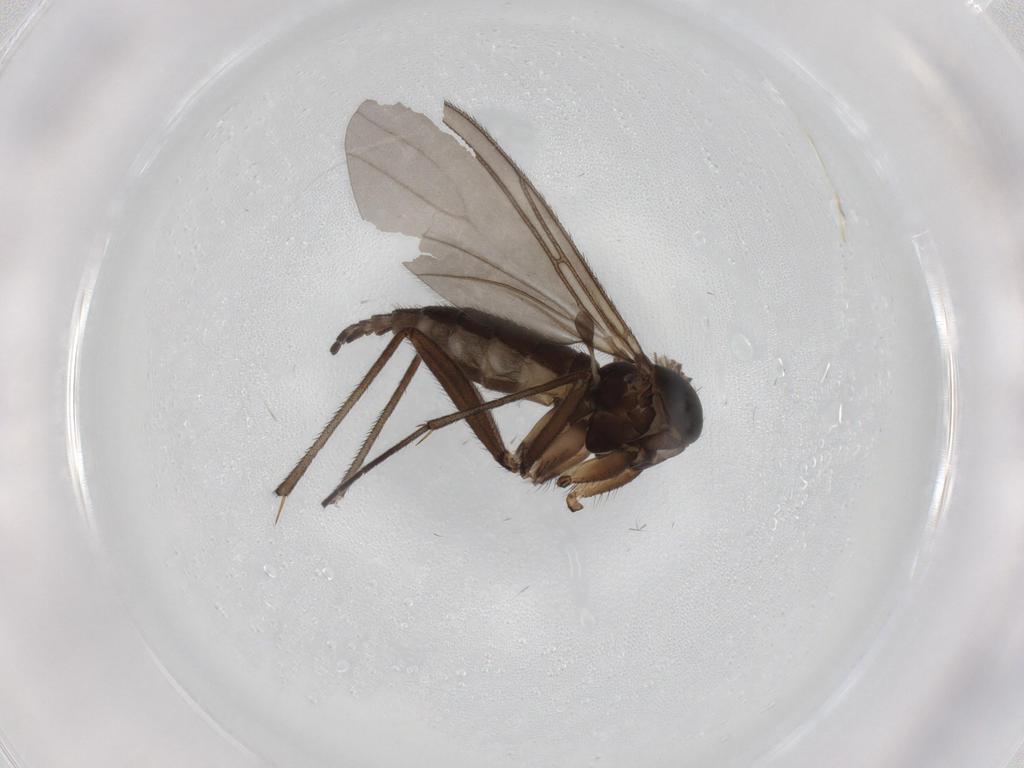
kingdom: Animalia
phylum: Arthropoda
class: Insecta
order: Diptera
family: Sciaridae
